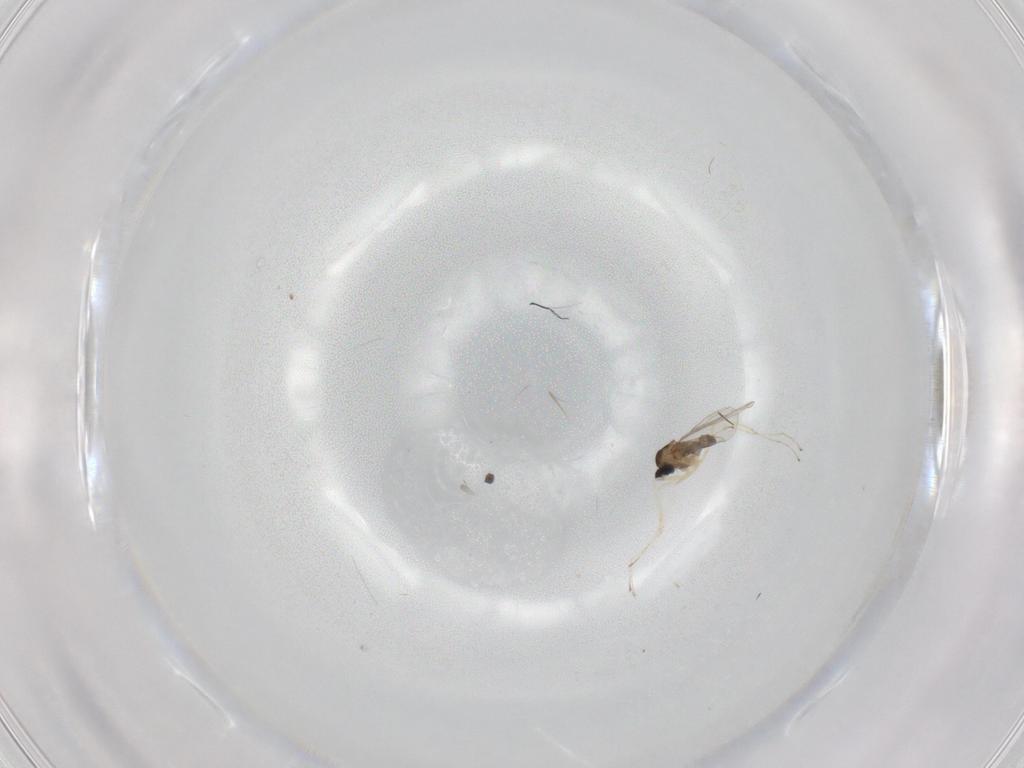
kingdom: Animalia
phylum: Arthropoda
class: Insecta
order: Diptera
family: Cecidomyiidae
